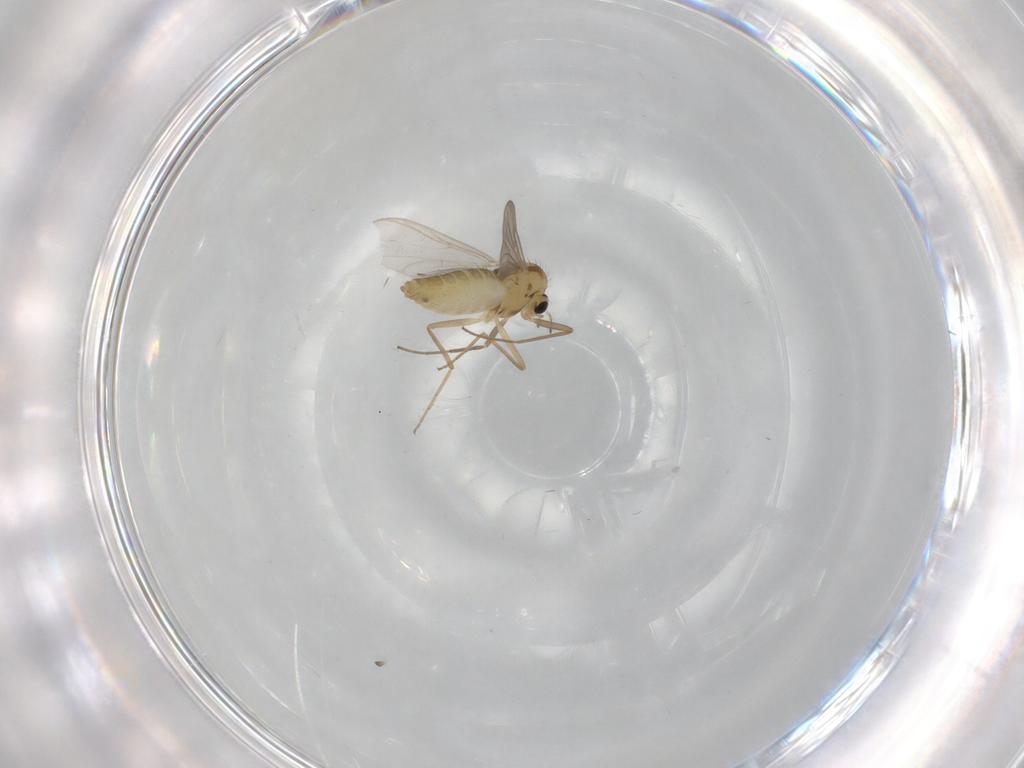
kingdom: Animalia
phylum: Arthropoda
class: Insecta
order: Diptera
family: Chironomidae
